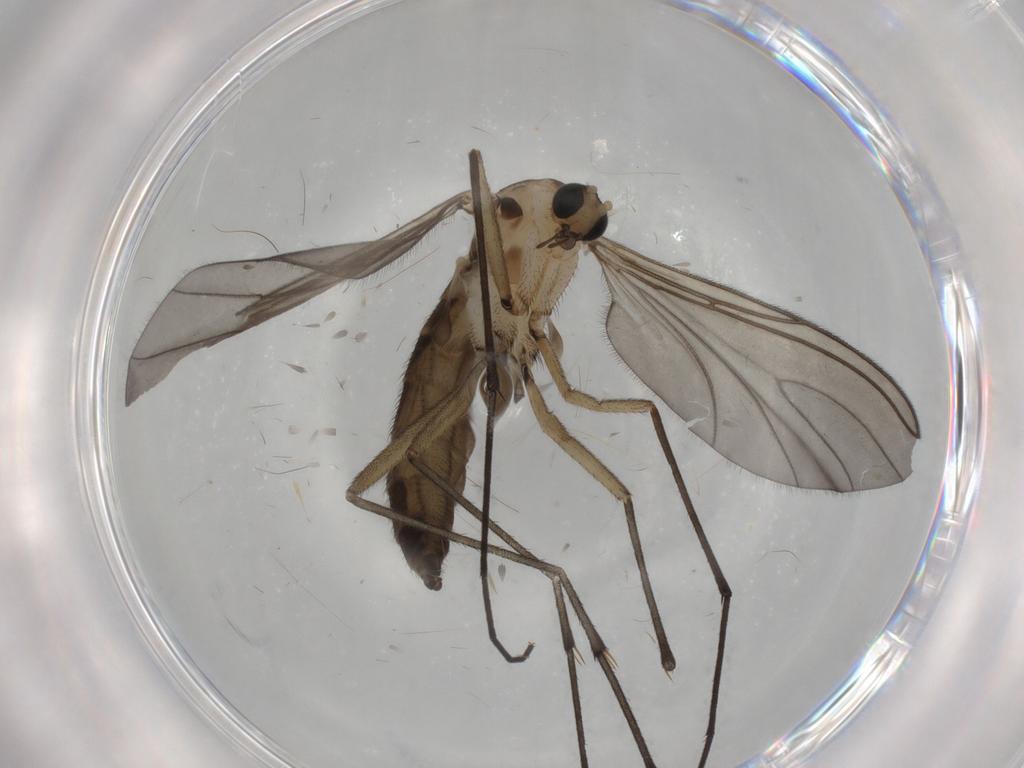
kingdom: Animalia
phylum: Arthropoda
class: Insecta
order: Diptera
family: Sciaridae
